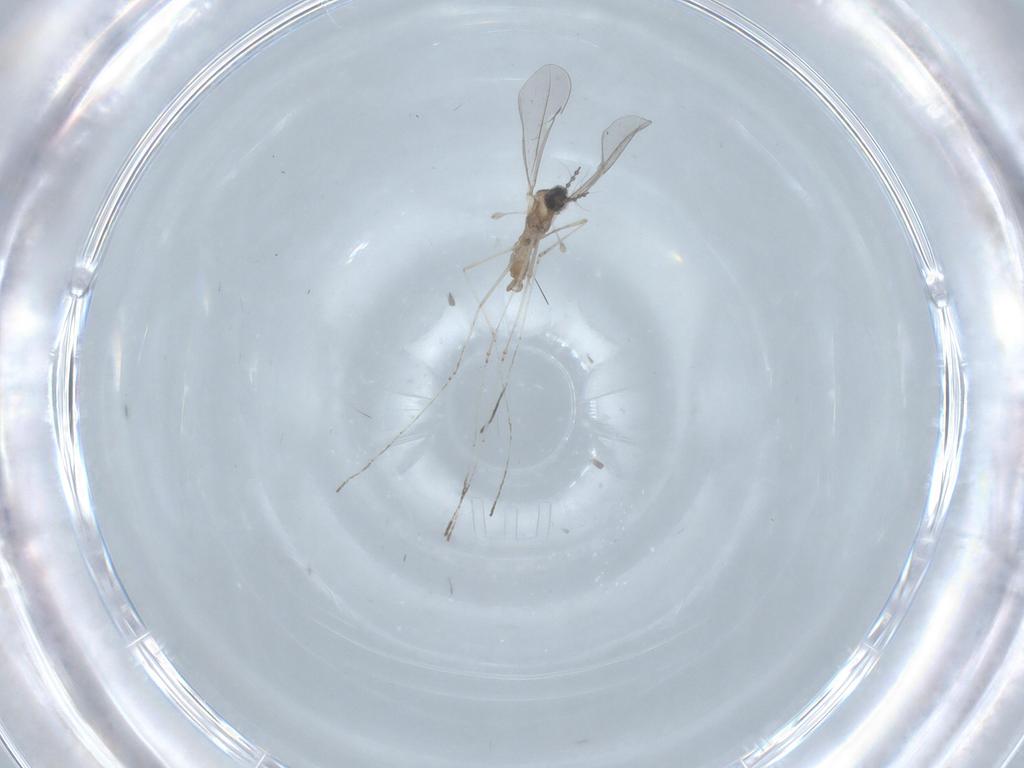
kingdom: Animalia
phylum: Arthropoda
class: Insecta
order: Diptera
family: Cecidomyiidae
